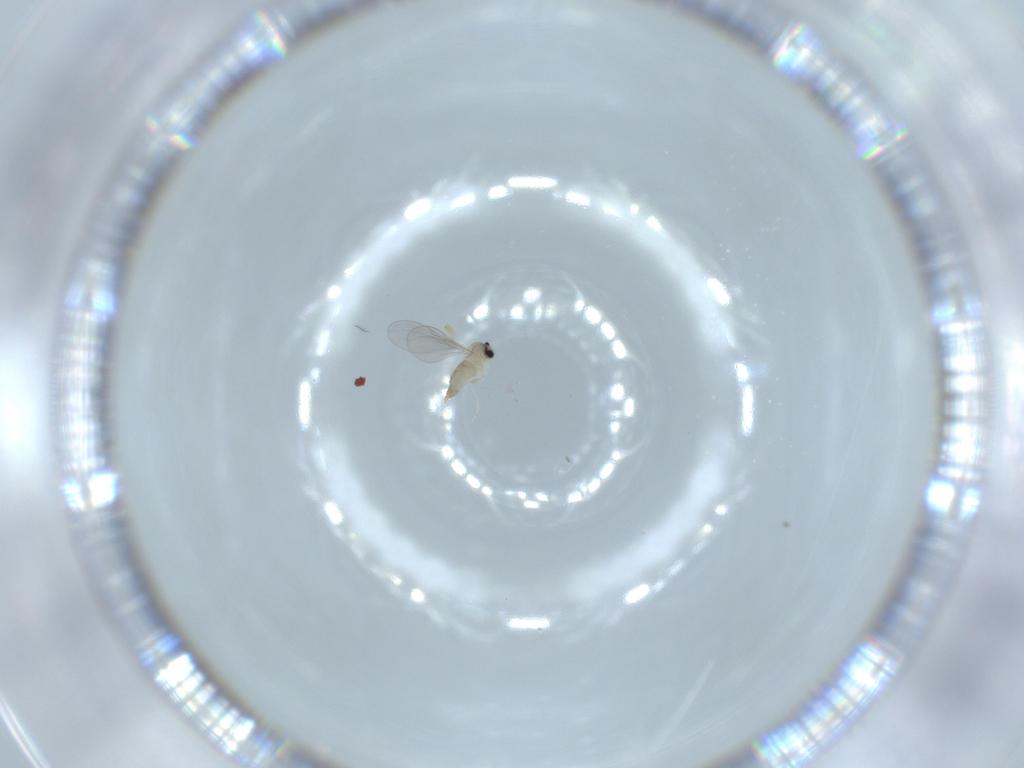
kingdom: Animalia
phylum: Arthropoda
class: Insecta
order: Diptera
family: Cecidomyiidae
